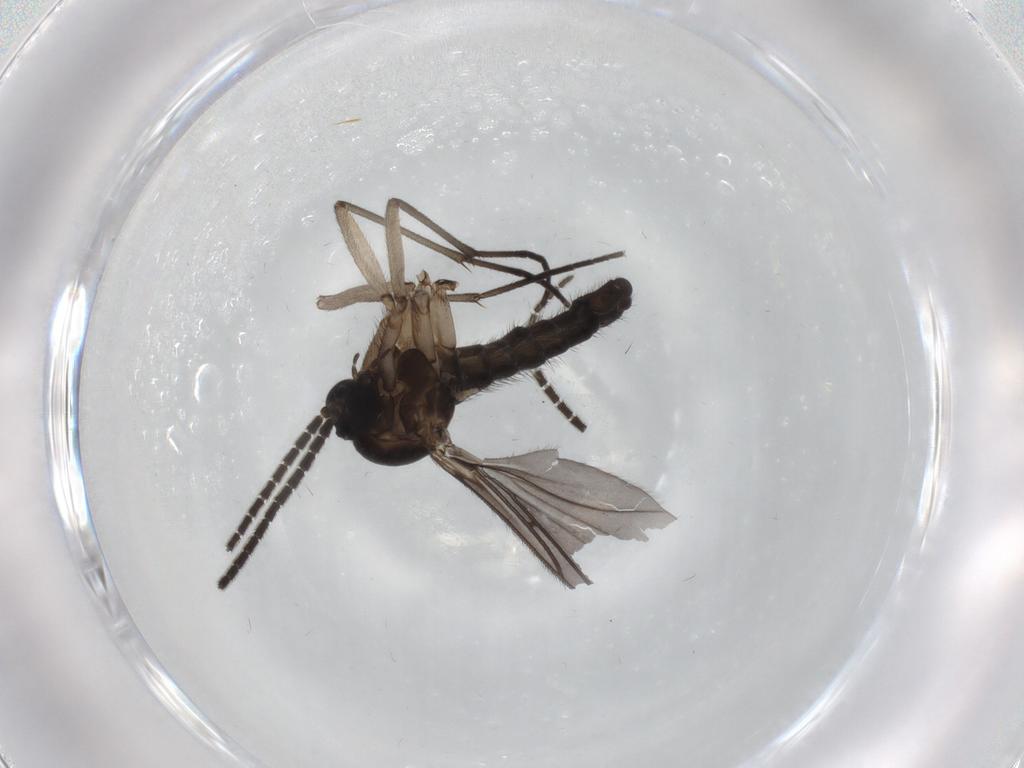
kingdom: Animalia
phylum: Arthropoda
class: Insecta
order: Diptera
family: Sciaridae
